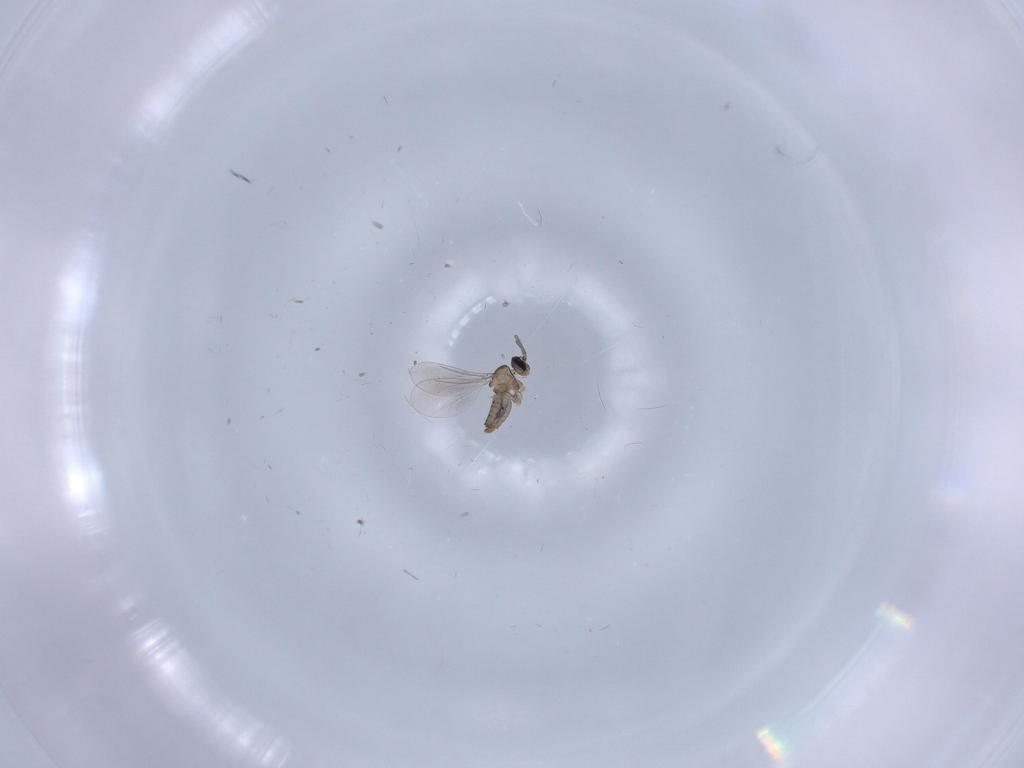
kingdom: Animalia
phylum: Arthropoda
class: Insecta
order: Diptera
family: Cecidomyiidae
